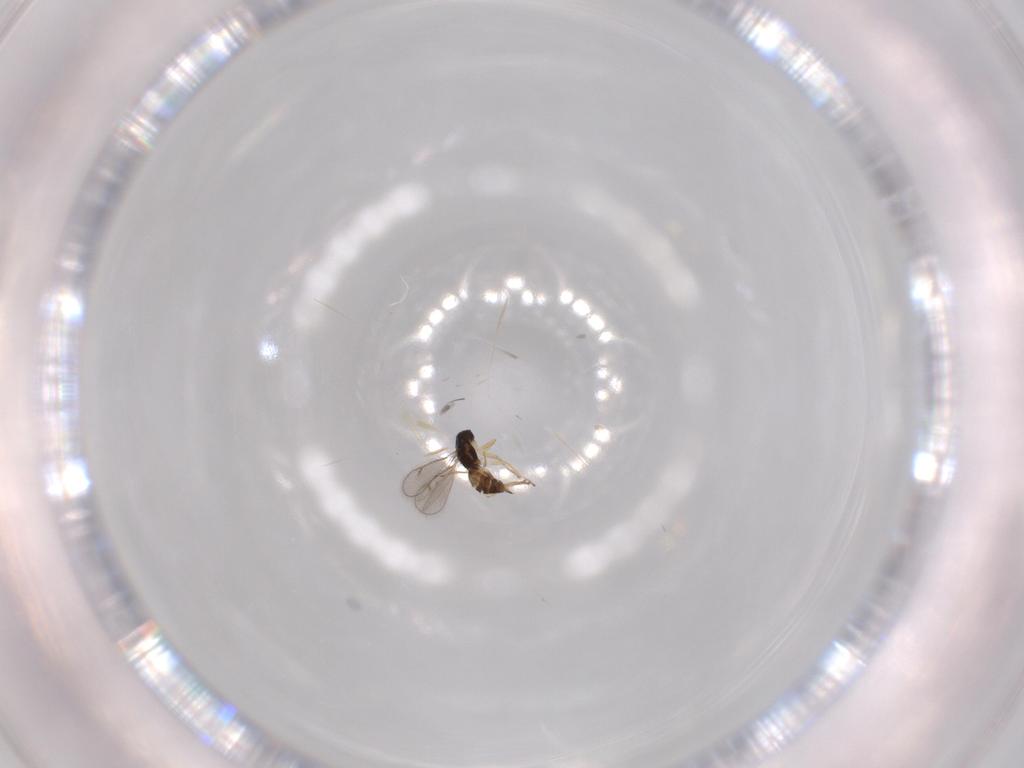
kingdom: Animalia
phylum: Arthropoda
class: Insecta
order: Hymenoptera
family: Scelionidae
